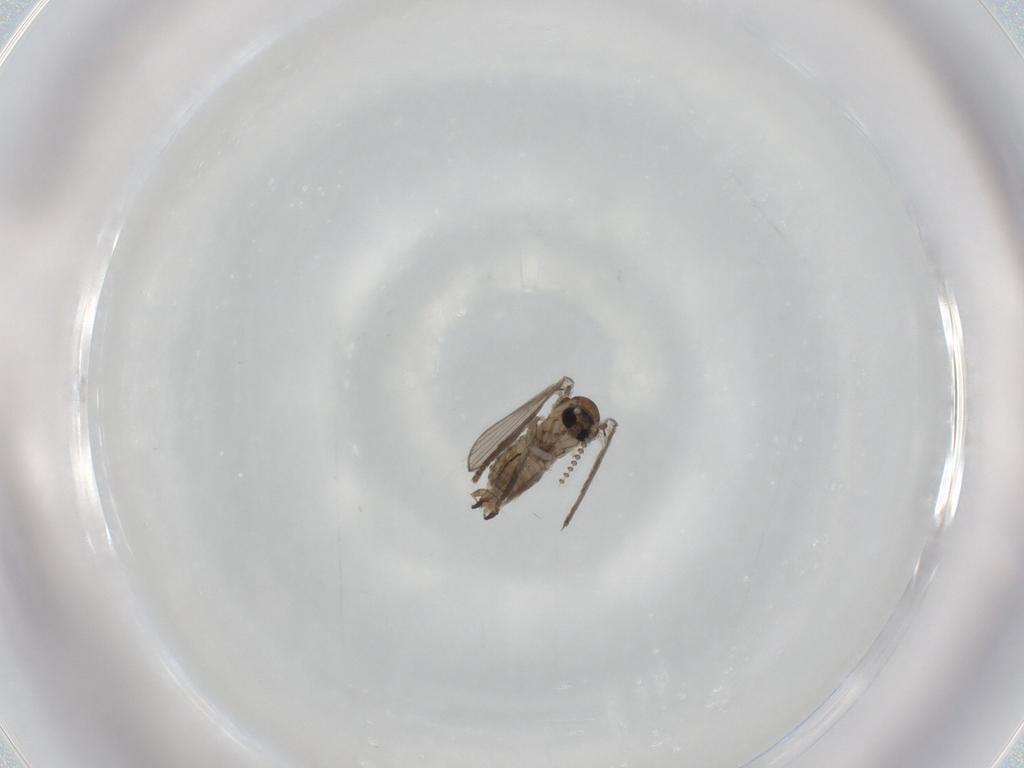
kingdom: Animalia
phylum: Arthropoda
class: Insecta
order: Diptera
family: Psychodidae
